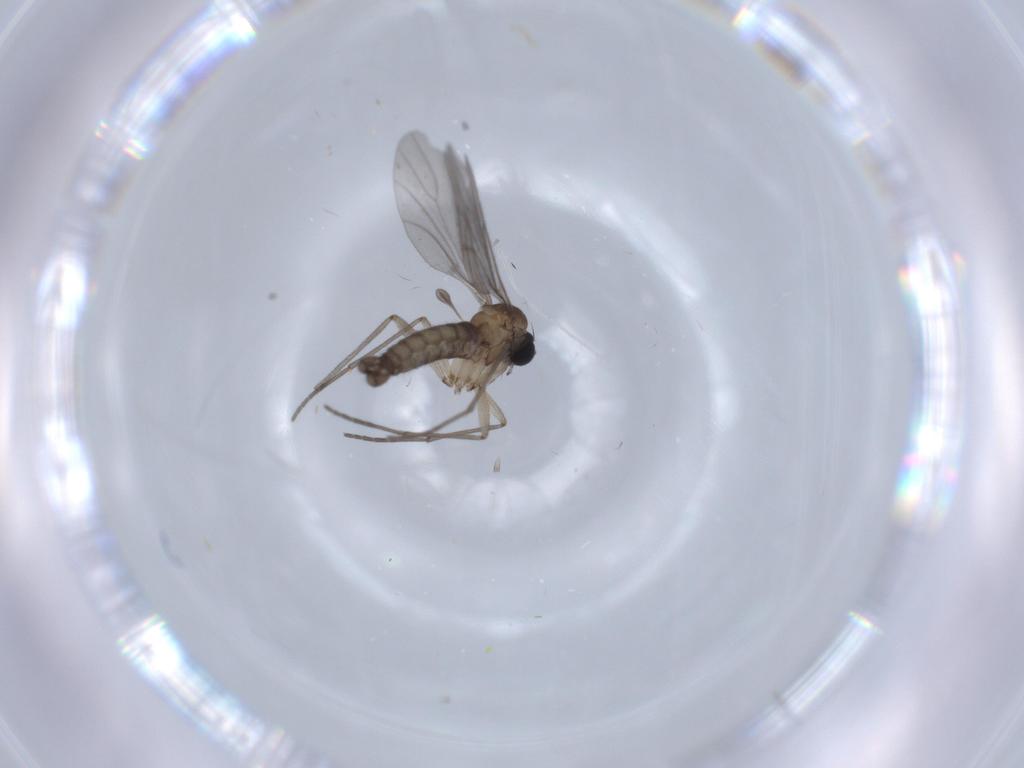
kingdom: Animalia
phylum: Arthropoda
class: Insecta
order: Diptera
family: Sciaridae
